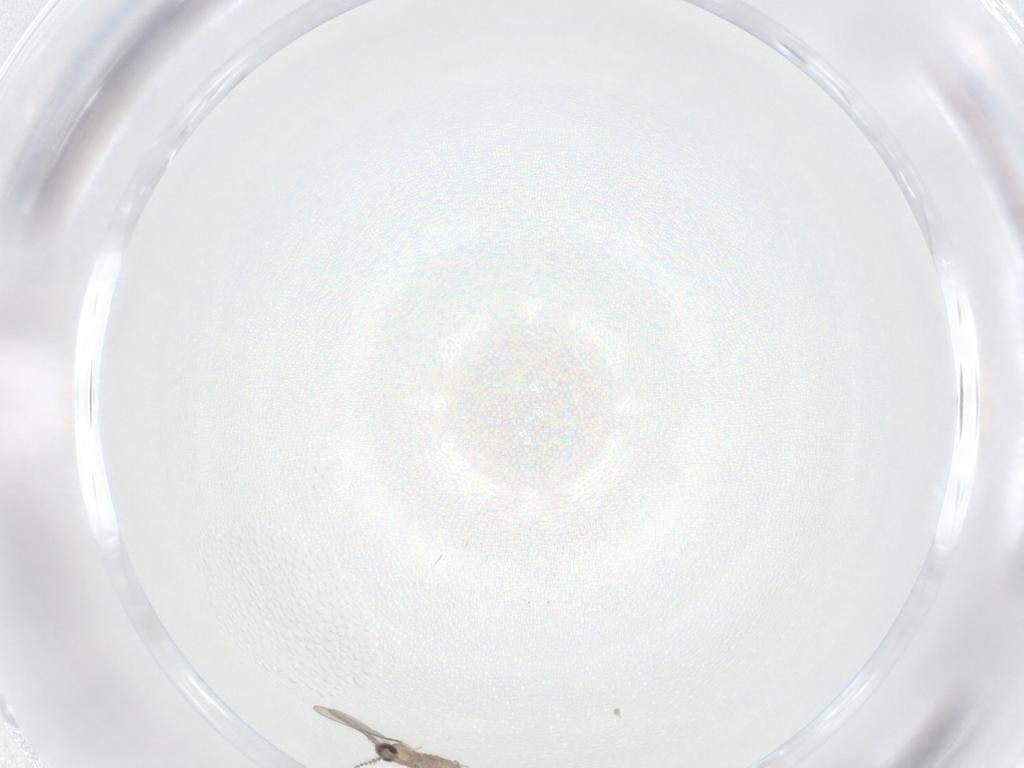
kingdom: Animalia
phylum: Arthropoda
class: Insecta
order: Diptera
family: Cecidomyiidae
